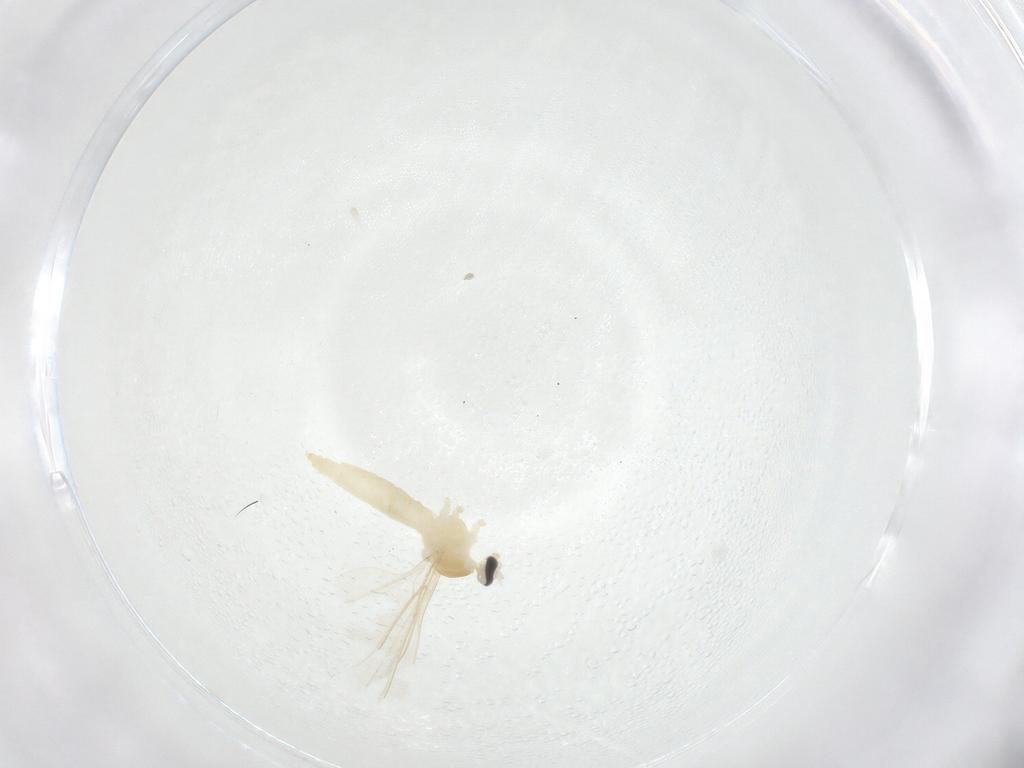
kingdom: Animalia
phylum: Arthropoda
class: Insecta
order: Diptera
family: Cecidomyiidae
